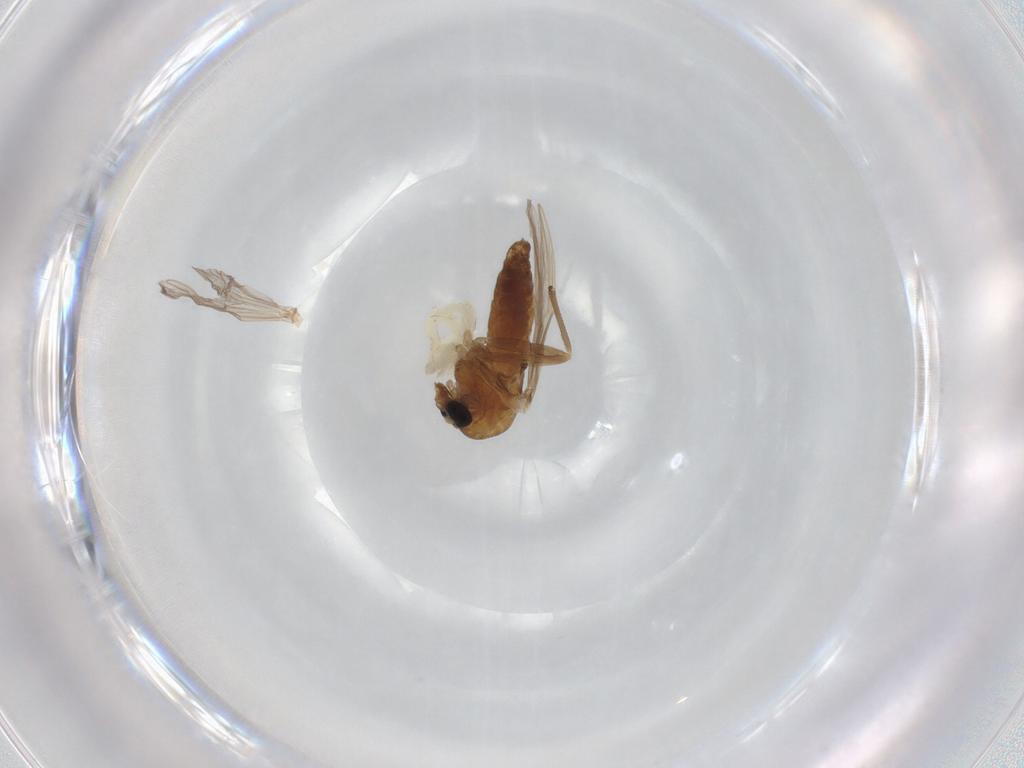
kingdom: Animalia
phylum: Arthropoda
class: Insecta
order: Diptera
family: Chironomidae
